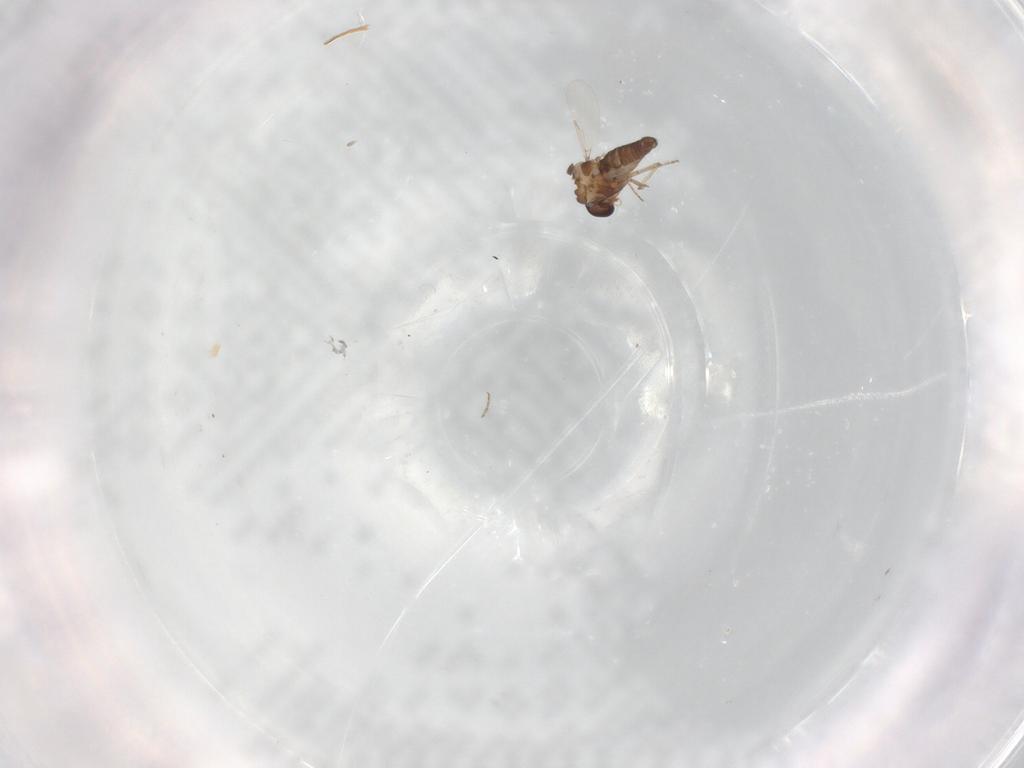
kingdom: Animalia
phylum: Arthropoda
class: Insecta
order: Diptera
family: Ceratopogonidae
